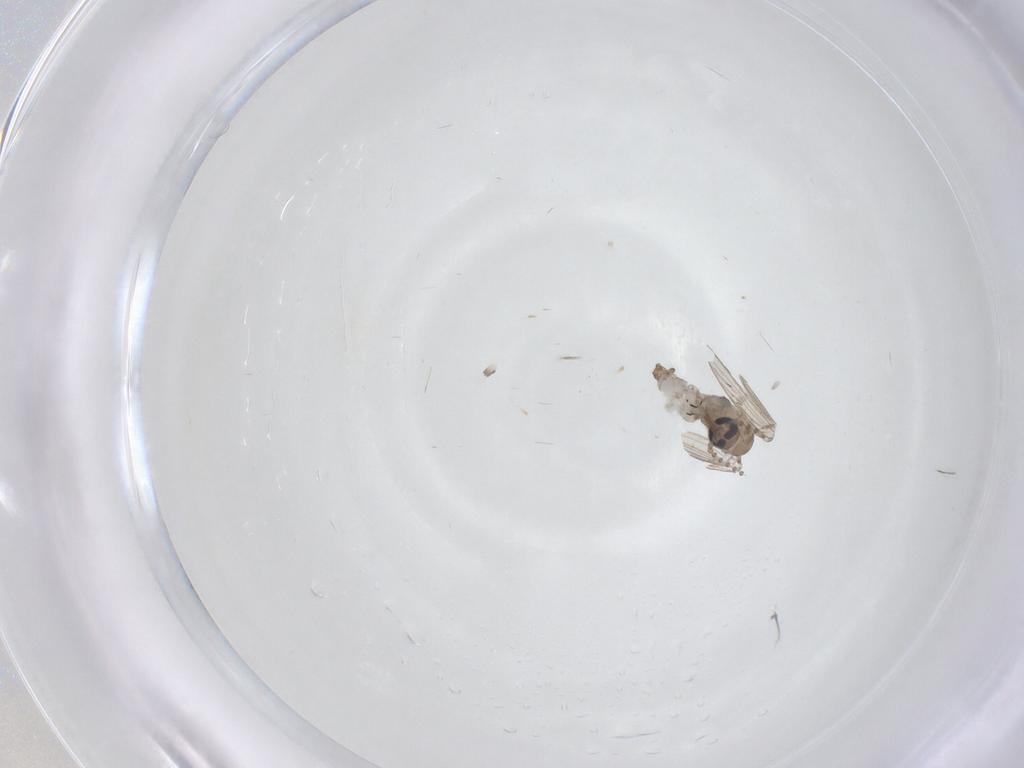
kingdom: Animalia
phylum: Arthropoda
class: Insecta
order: Diptera
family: Psychodidae
